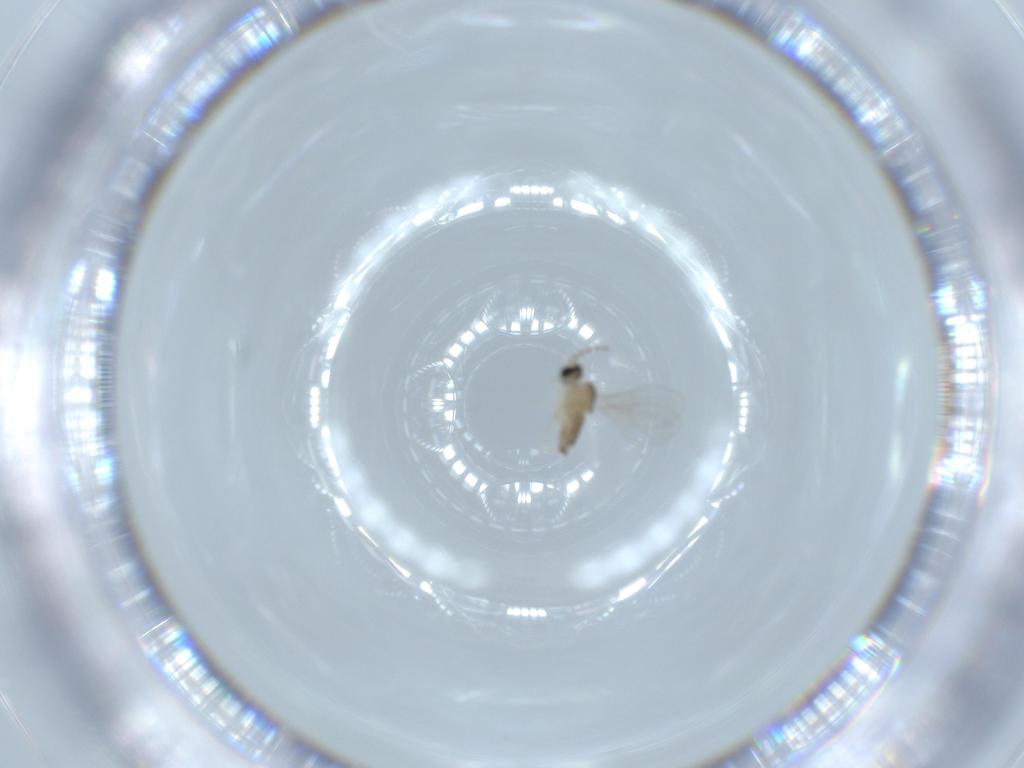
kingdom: Animalia
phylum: Arthropoda
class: Insecta
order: Diptera
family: Cecidomyiidae
